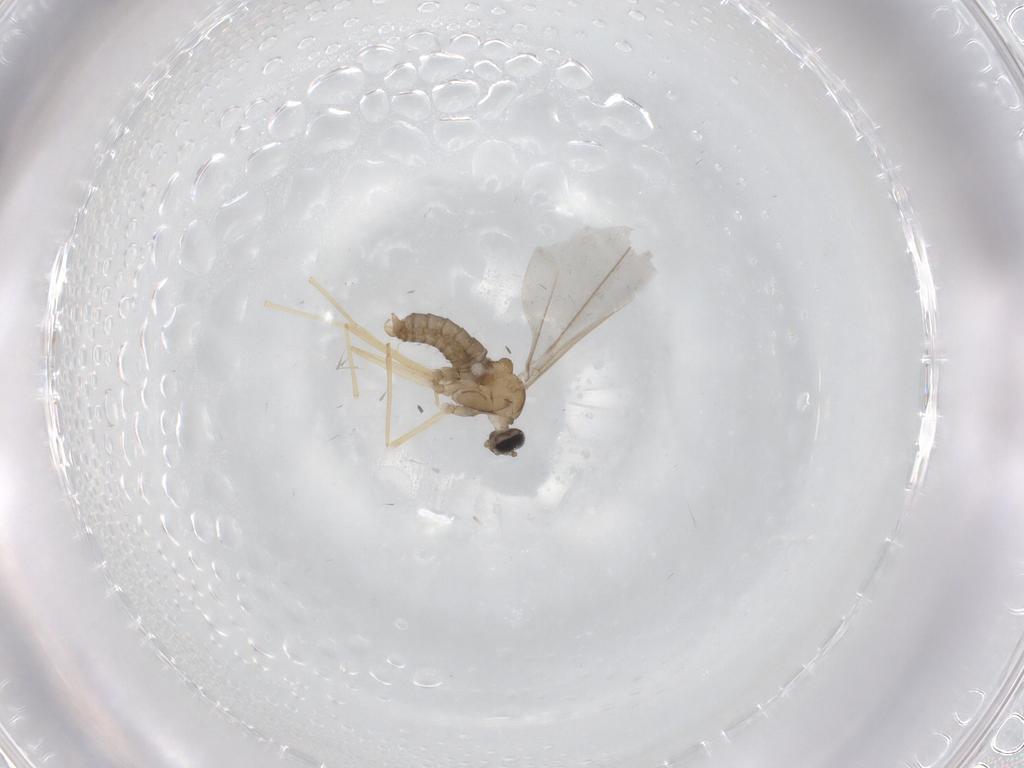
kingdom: Animalia
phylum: Arthropoda
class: Insecta
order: Diptera
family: Cecidomyiidae
